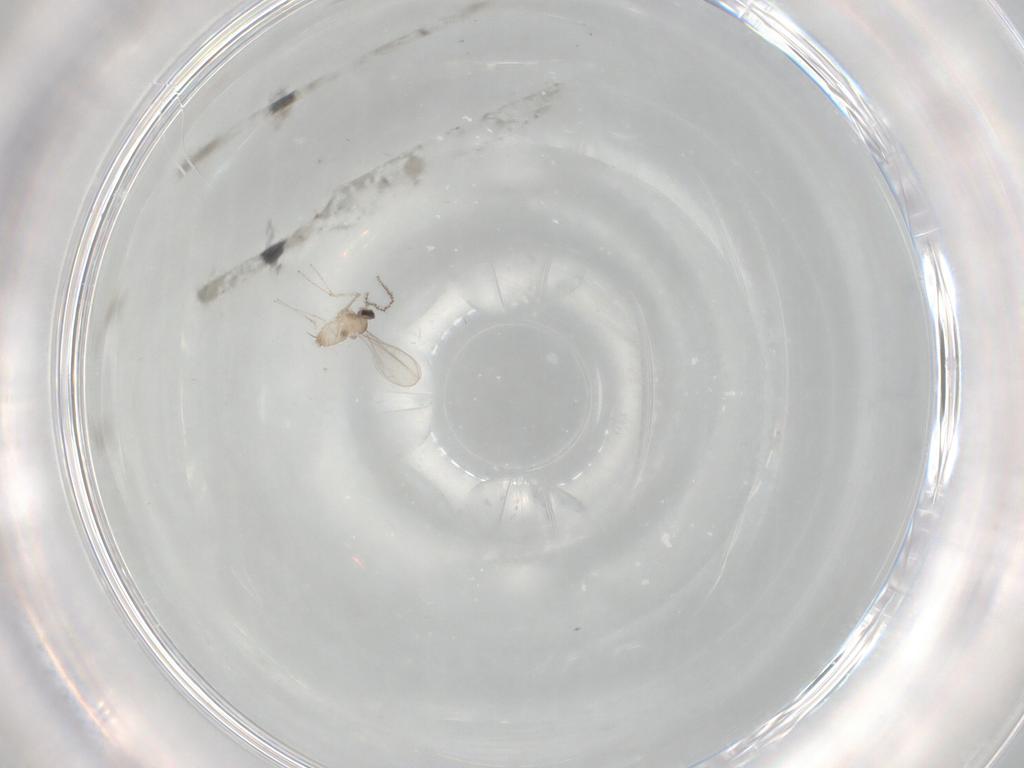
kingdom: Animalia
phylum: Arthropoda
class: Insecta
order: Diptera
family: Cecidomyiidae
